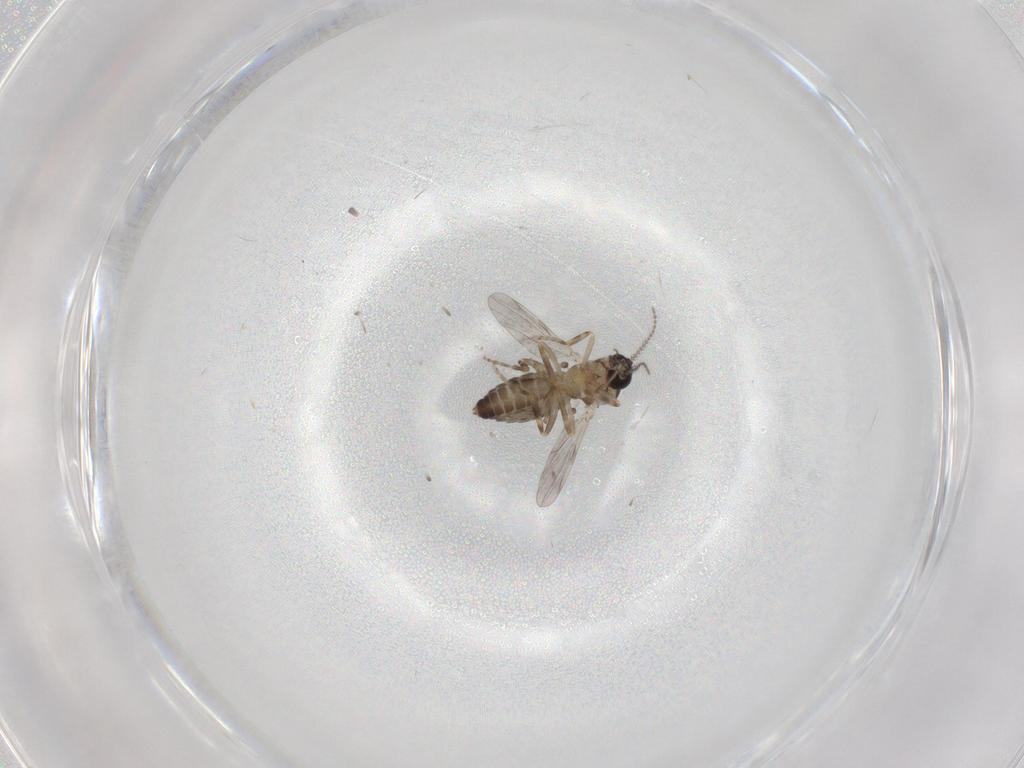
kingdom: Animalia
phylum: Arthropoda
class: Insecta
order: Diptera
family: Ceratopogonidae
